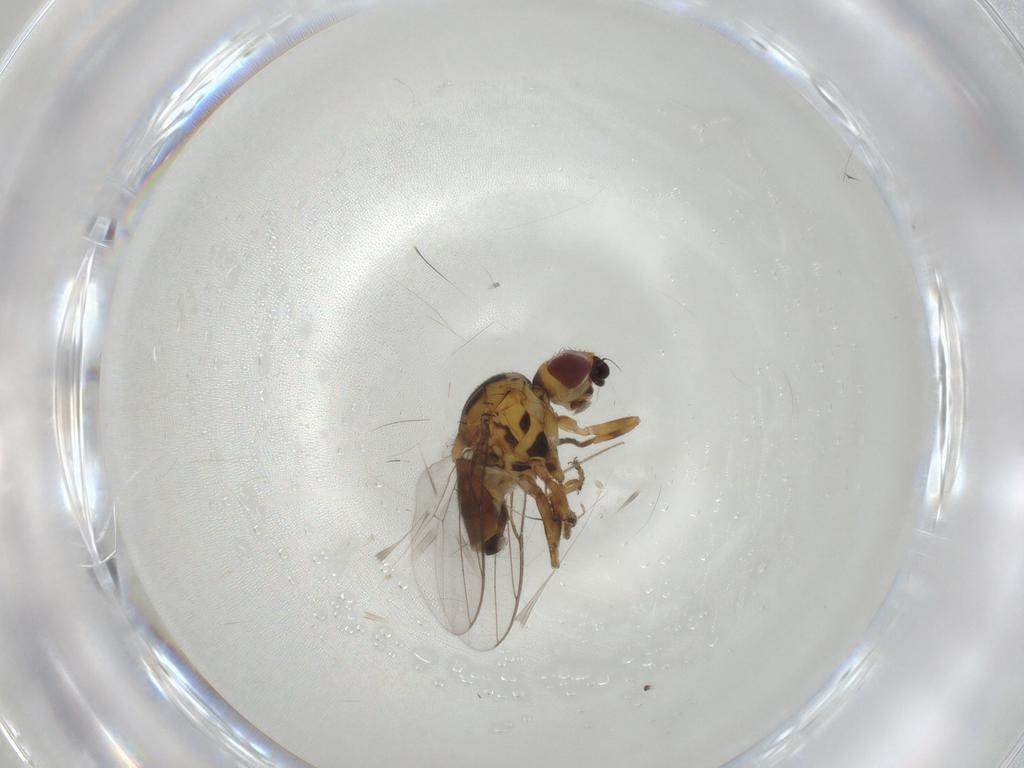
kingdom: Animalia
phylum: Arthropoda
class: Insecta
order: Diptera
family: Chloropidae
